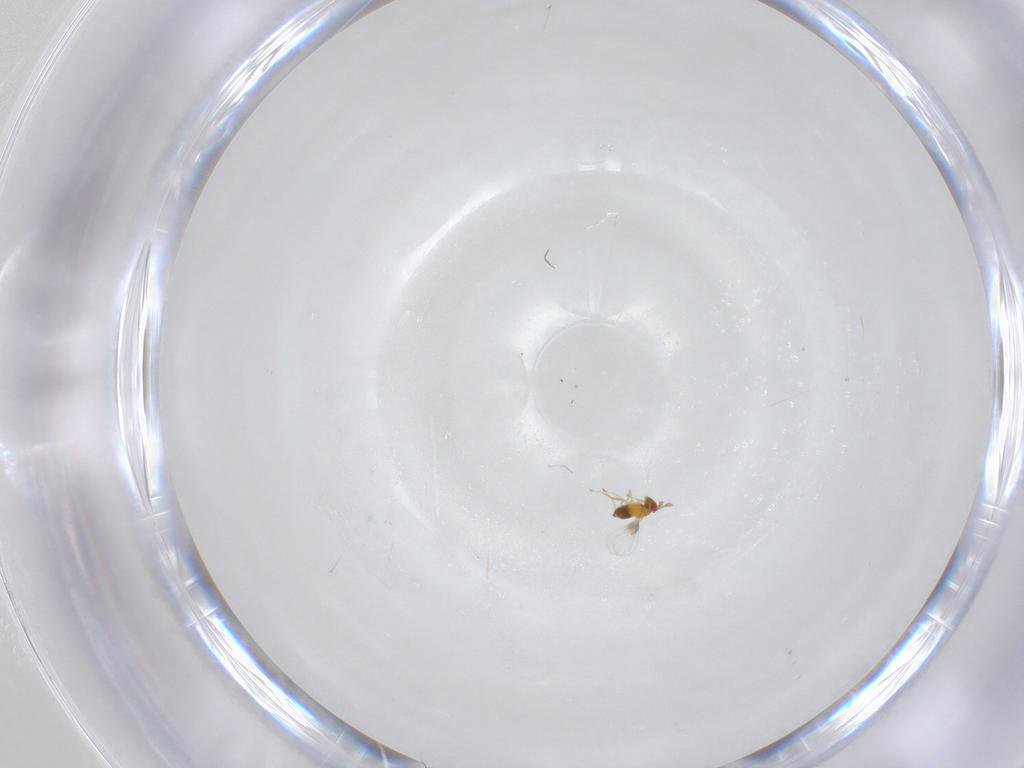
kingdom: Animalia
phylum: Arthropoda
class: Insecta
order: Hymenoptera
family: Trichogrammatidae
